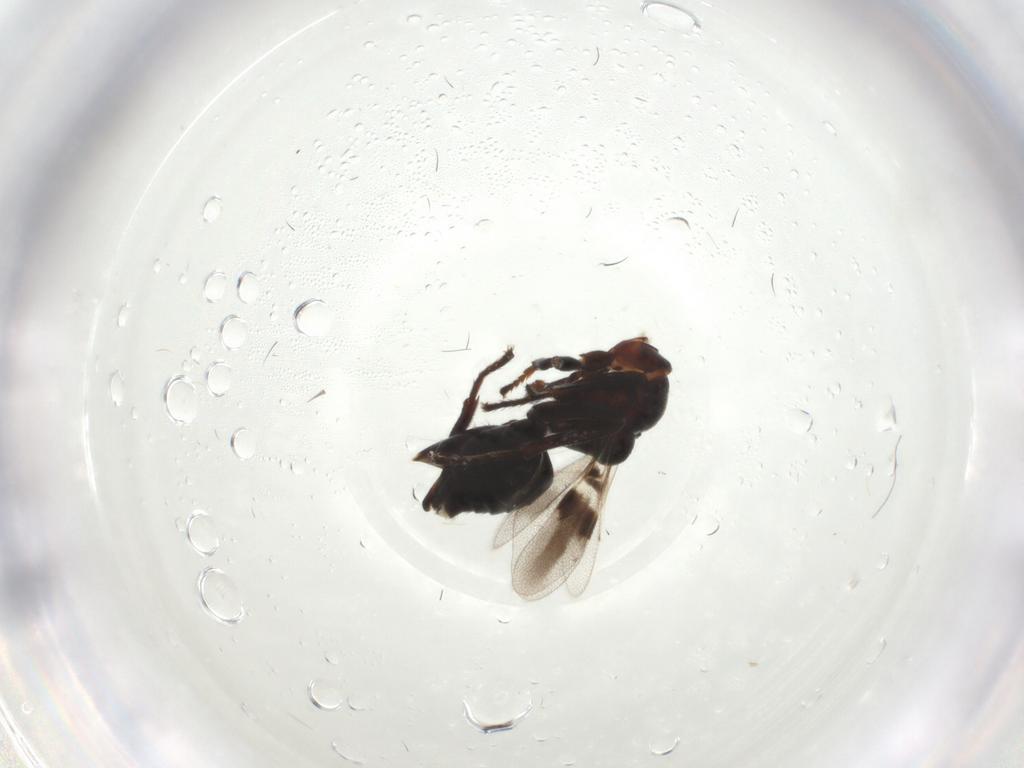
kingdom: Animalia
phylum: Arthropoda
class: Insecta
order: Hymenoptera
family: Encyrtidae
